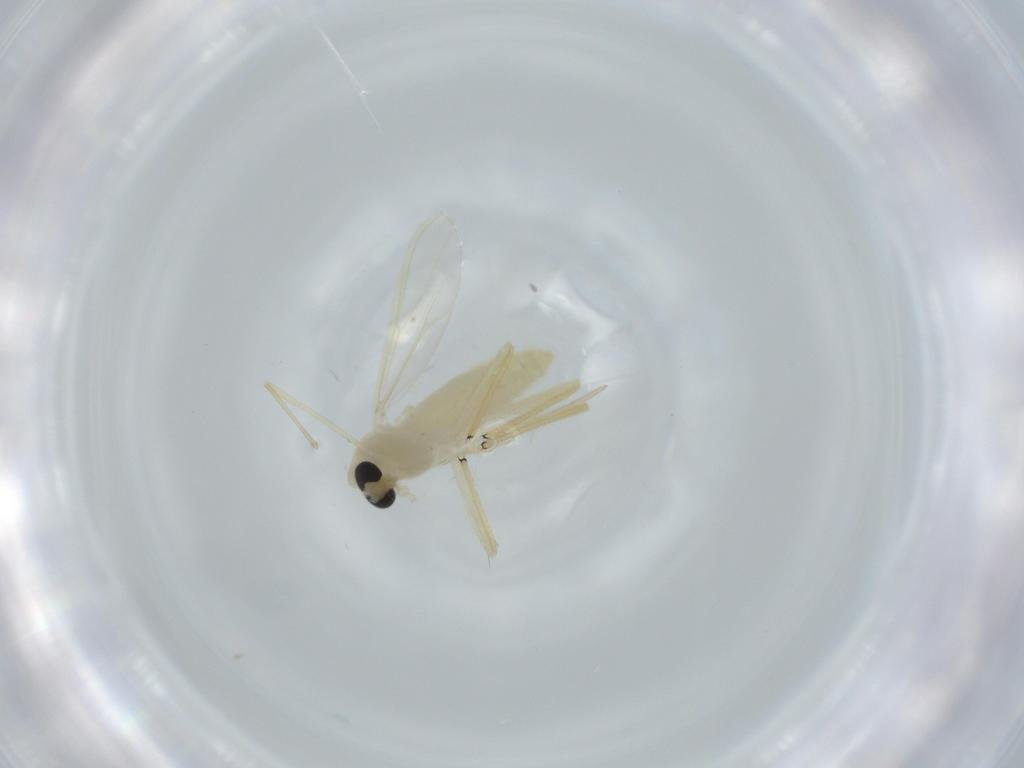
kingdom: Animalia
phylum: Arthropoda
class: Insecta
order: Diptera
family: Chironomidae
